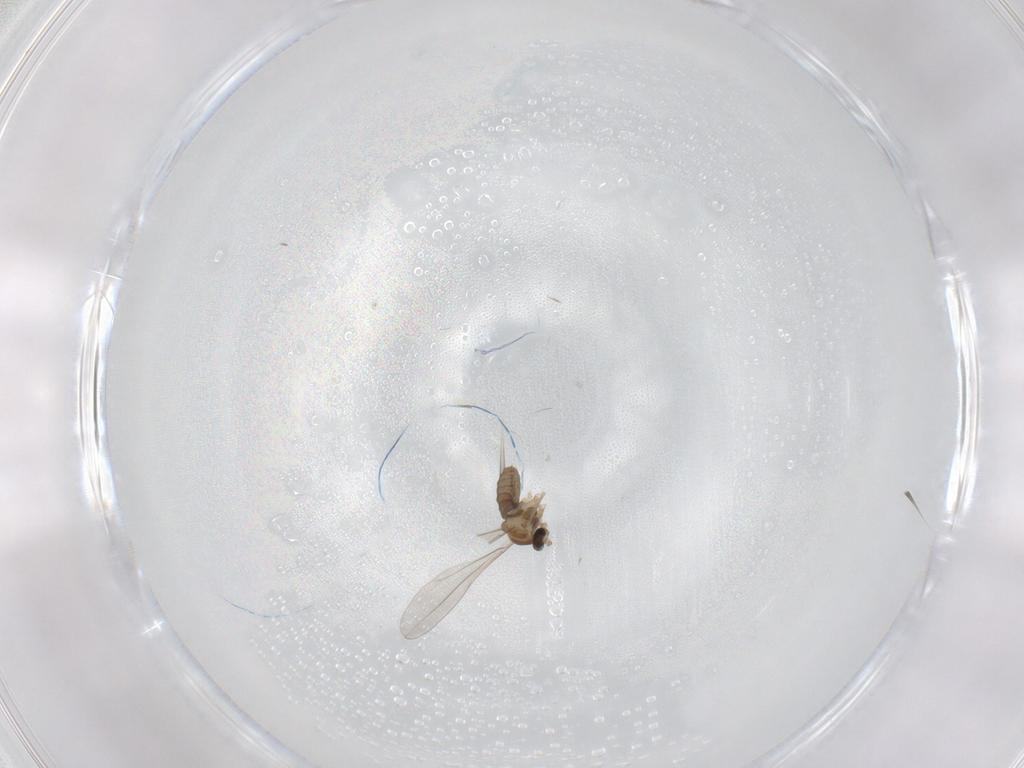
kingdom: Animalia
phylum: Arthropoda
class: Insecta
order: Diptera
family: Cecidomyiidae
